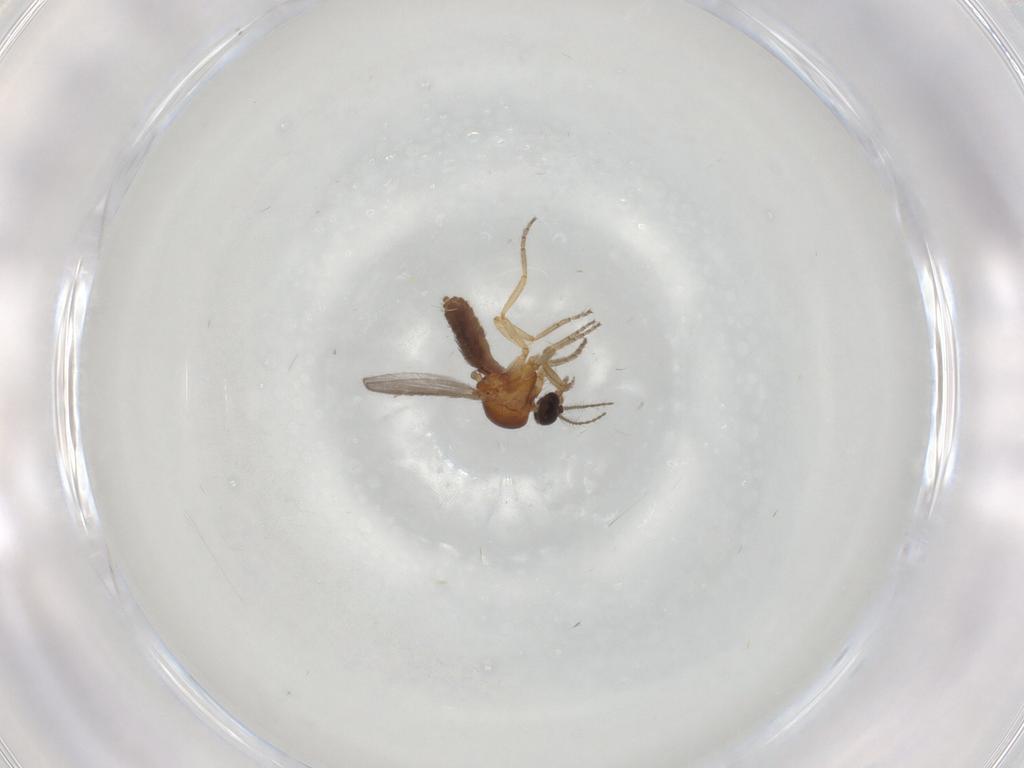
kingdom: Animalia
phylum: Arthropoda
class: Insecta
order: Diptera
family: Ceratopogonidae
